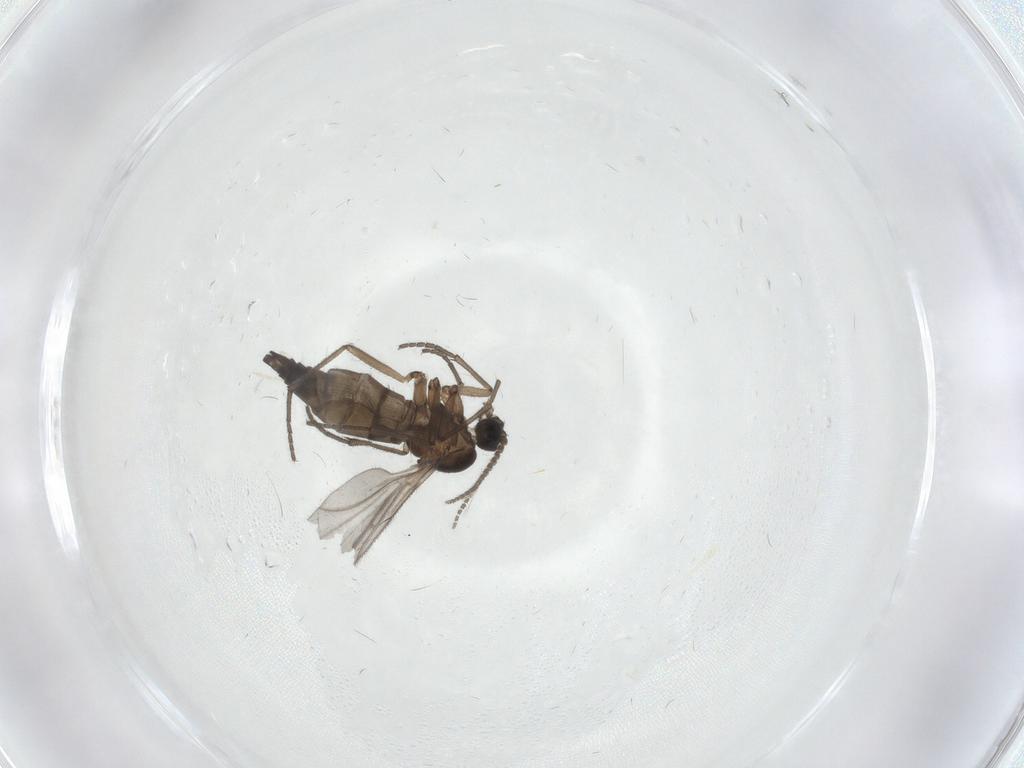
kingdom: Animalia
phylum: Arthropoda
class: Insecta
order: Diptera
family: Sciaridae
